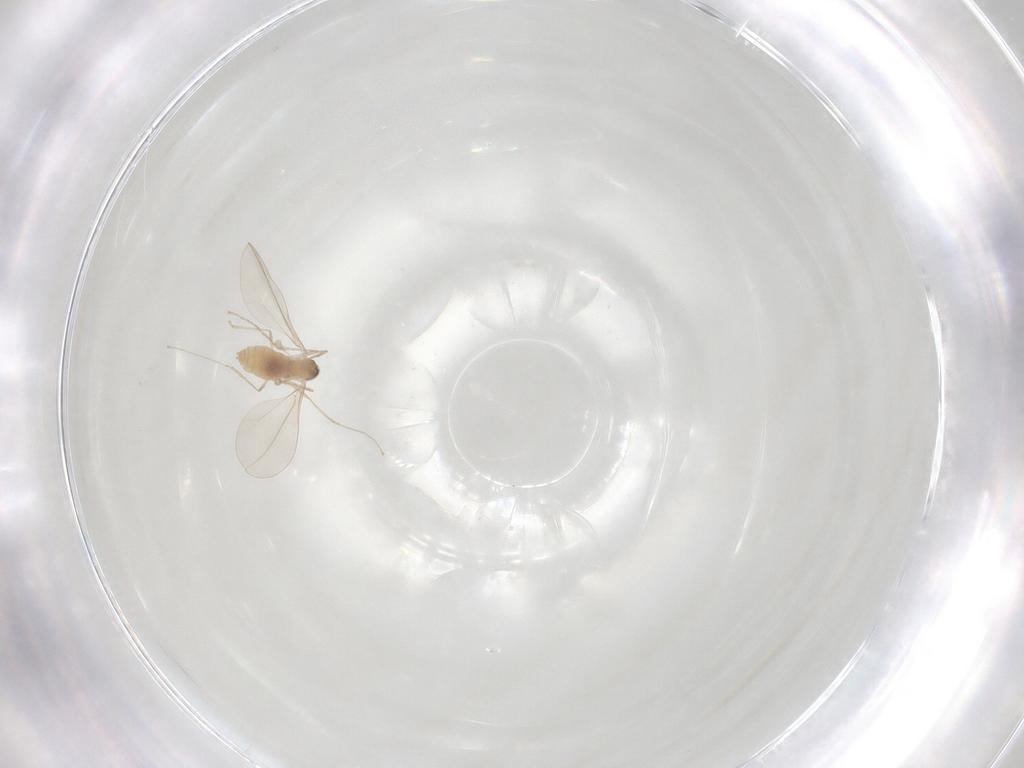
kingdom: Animalia
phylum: Arthropoda
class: Insecta
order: Diptera
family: Cecidomyiidae
